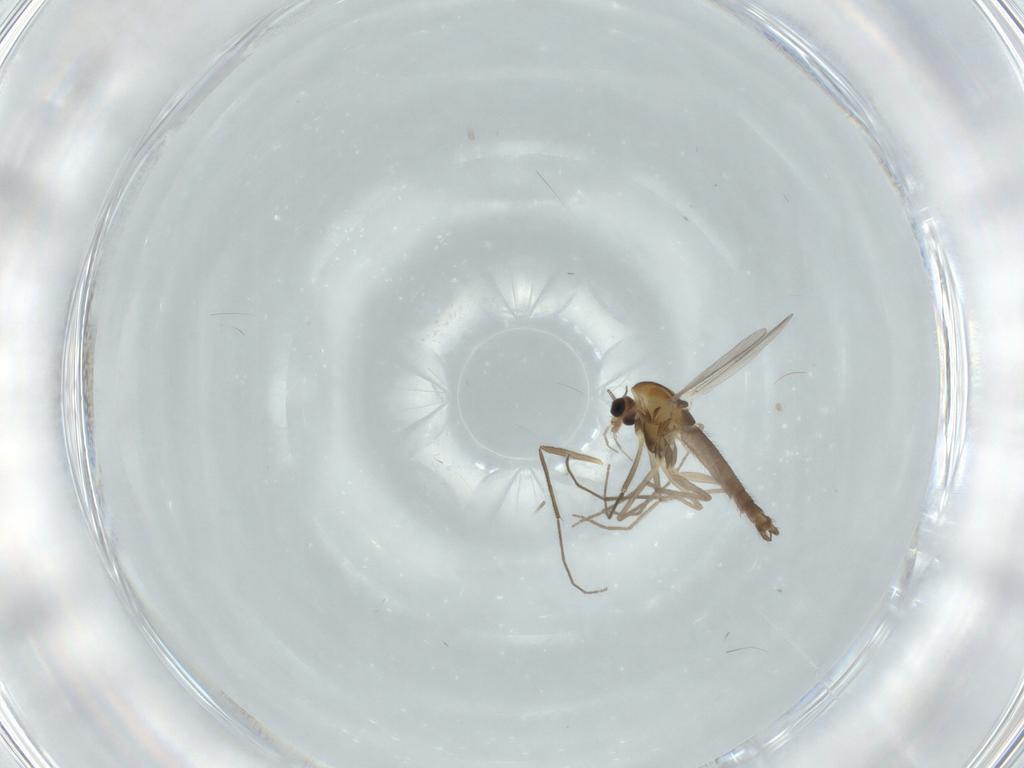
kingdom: Animalia
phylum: Arthropoda
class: Insecta
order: Diptera
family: Chironomidae
